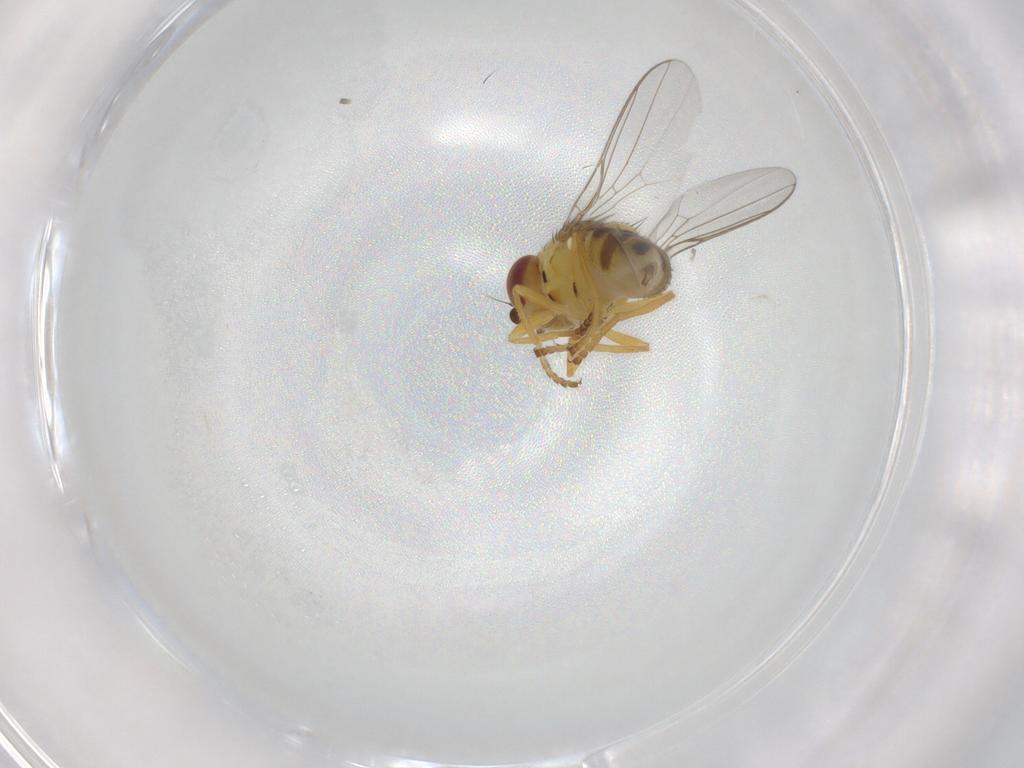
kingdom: Animalia
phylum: Arthropoda
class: Insecta
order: Diptera
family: Chloropidae
